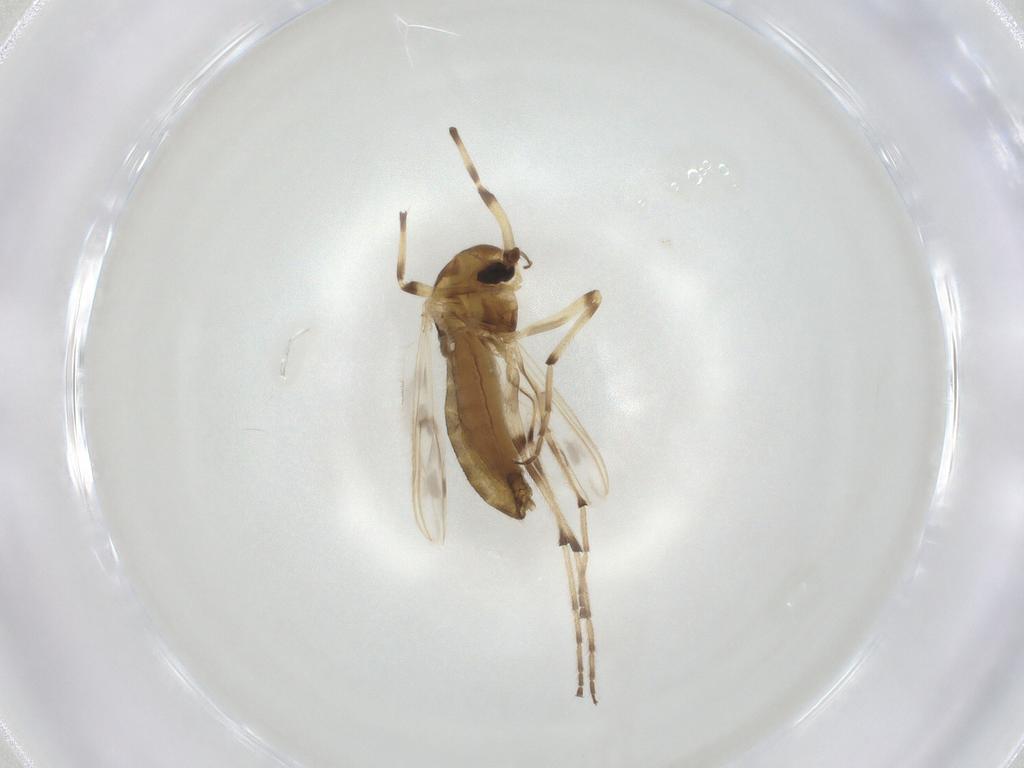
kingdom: Animalia
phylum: Arthropoda
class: Insecta
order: Diptera
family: Chironomidae
